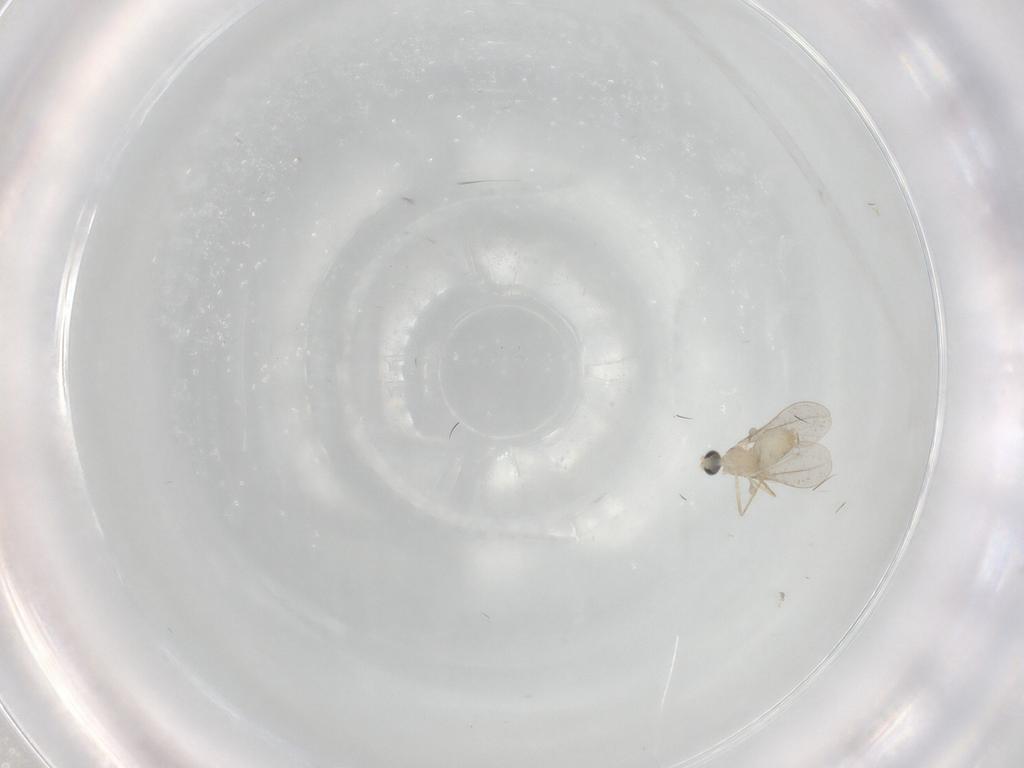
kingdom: Animalia
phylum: Arthropoda
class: Insecta
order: Diptera
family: Cecidomyiidae
